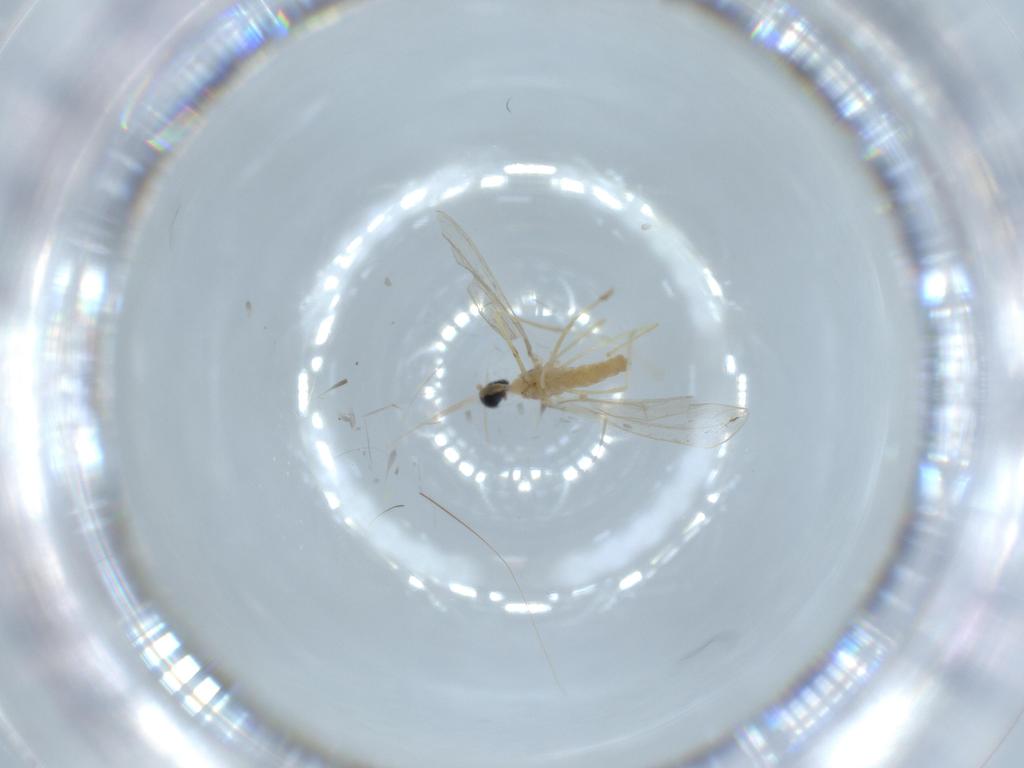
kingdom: Animalia
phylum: Arthropoda
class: Insecta
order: Diptera
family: Cecidomyiidae
